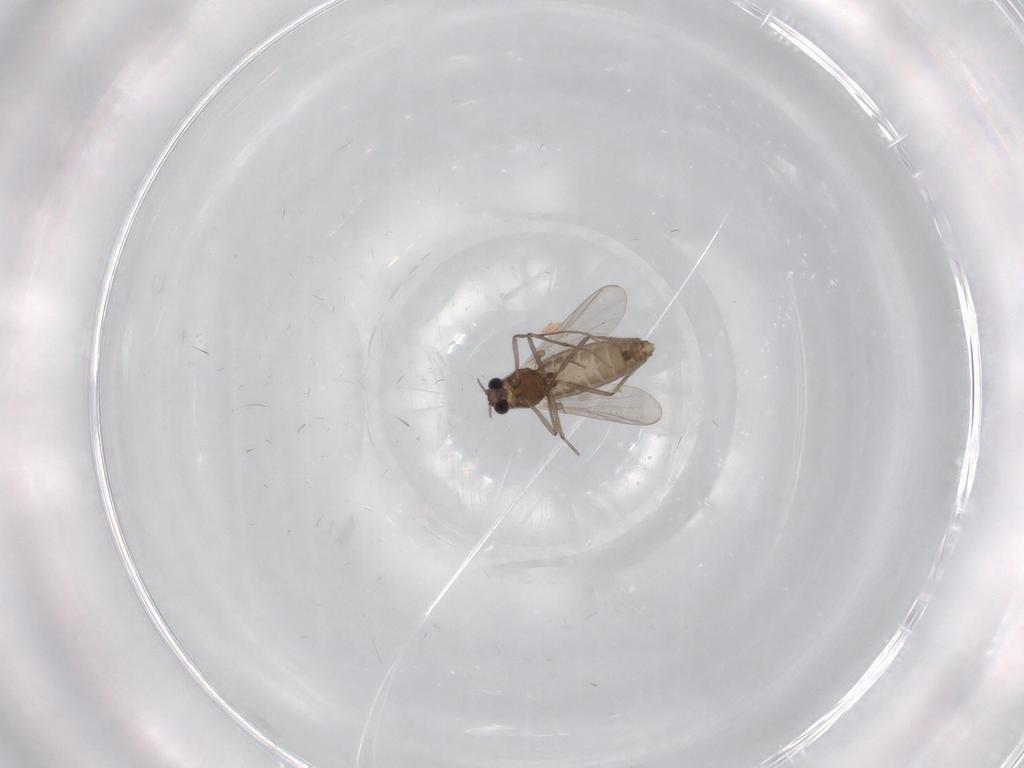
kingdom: Animalia
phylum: Arthropoda
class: Insecta
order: Diptera
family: Chironomidae
